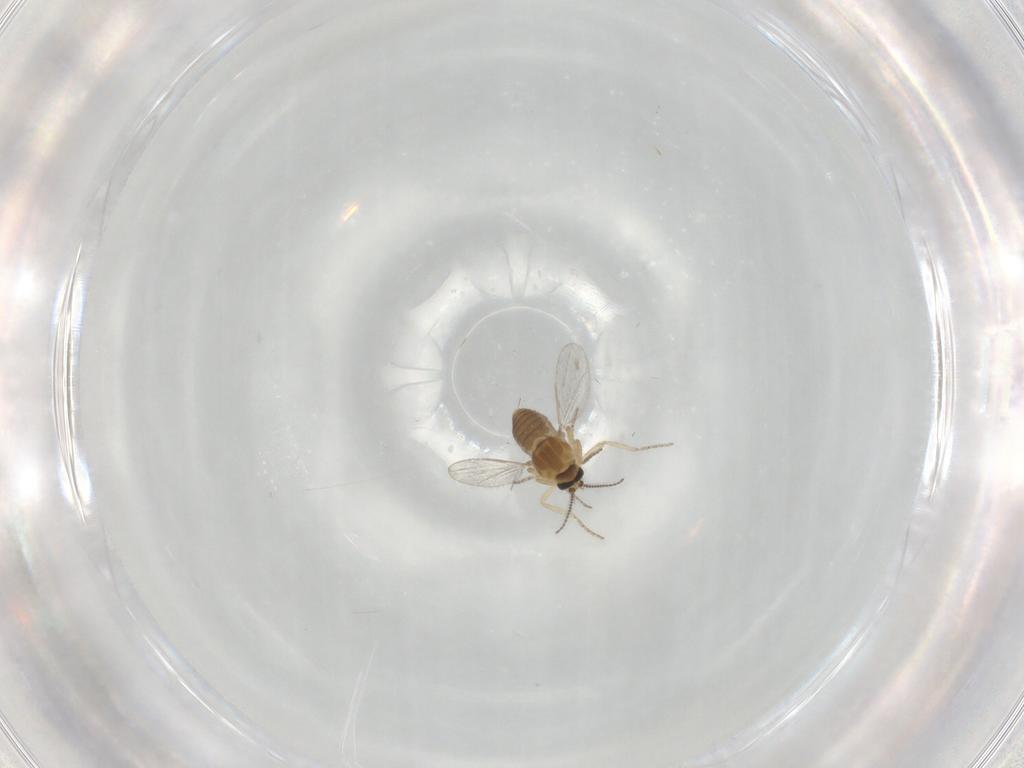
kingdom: Animalia
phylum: Arthropoda
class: Insecta
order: Diptera
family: Ceratopogonidae
